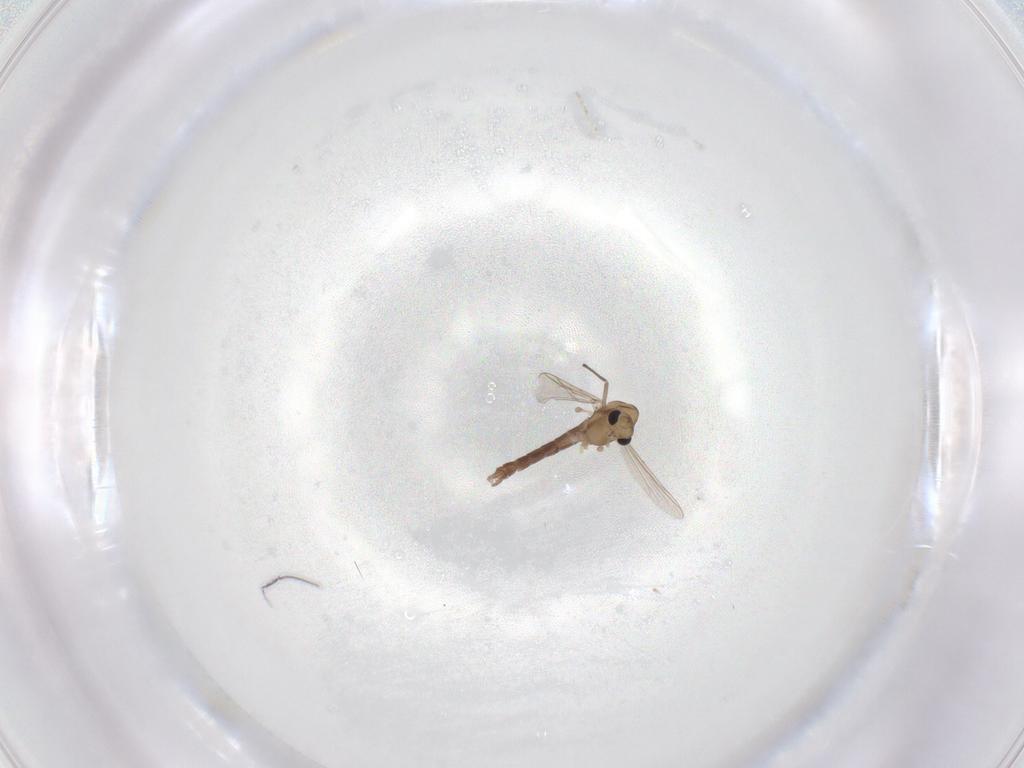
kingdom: Animalia
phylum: Arthropoda
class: Insecta
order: Diptera
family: Chironomidae
